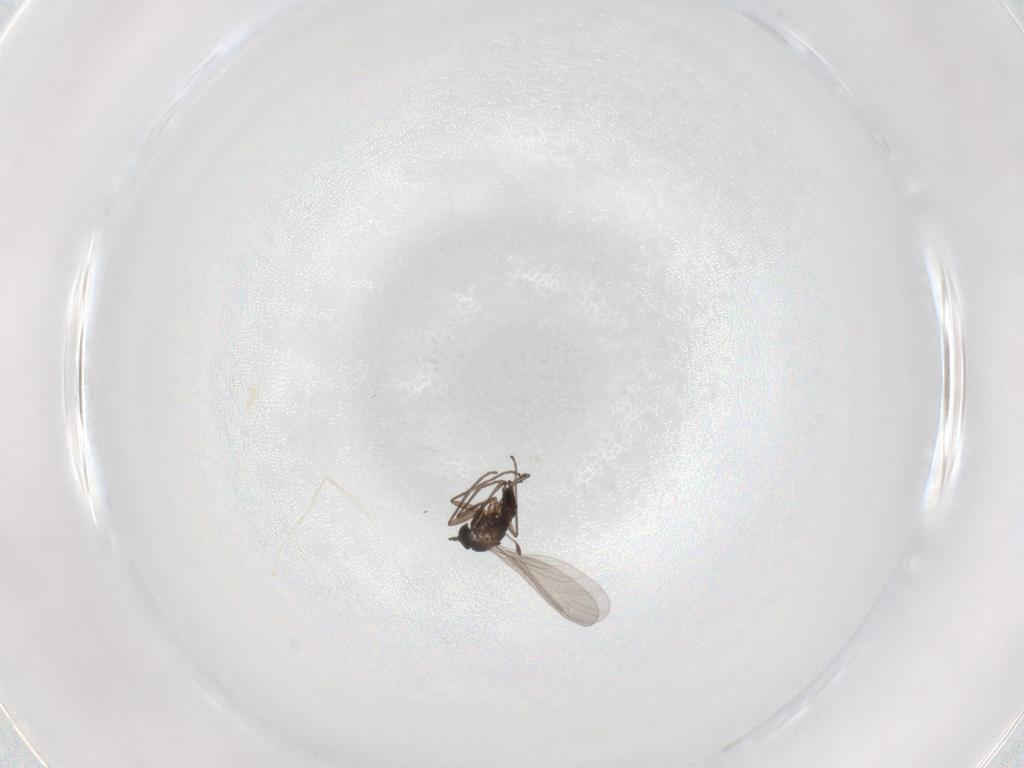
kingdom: Animalia
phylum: Arthropoda
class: Insecta
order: Diptera
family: Sciaridae
